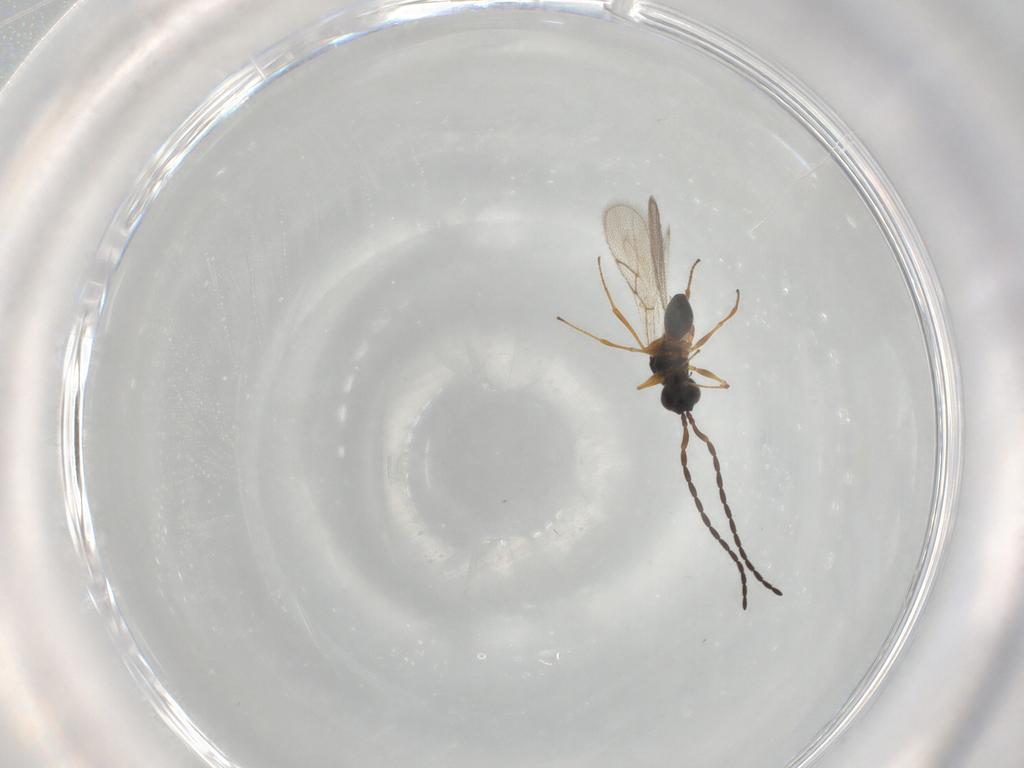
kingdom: Animalia
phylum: Arthropoda
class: Insecta
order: Hymenoptera
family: Figitidae
